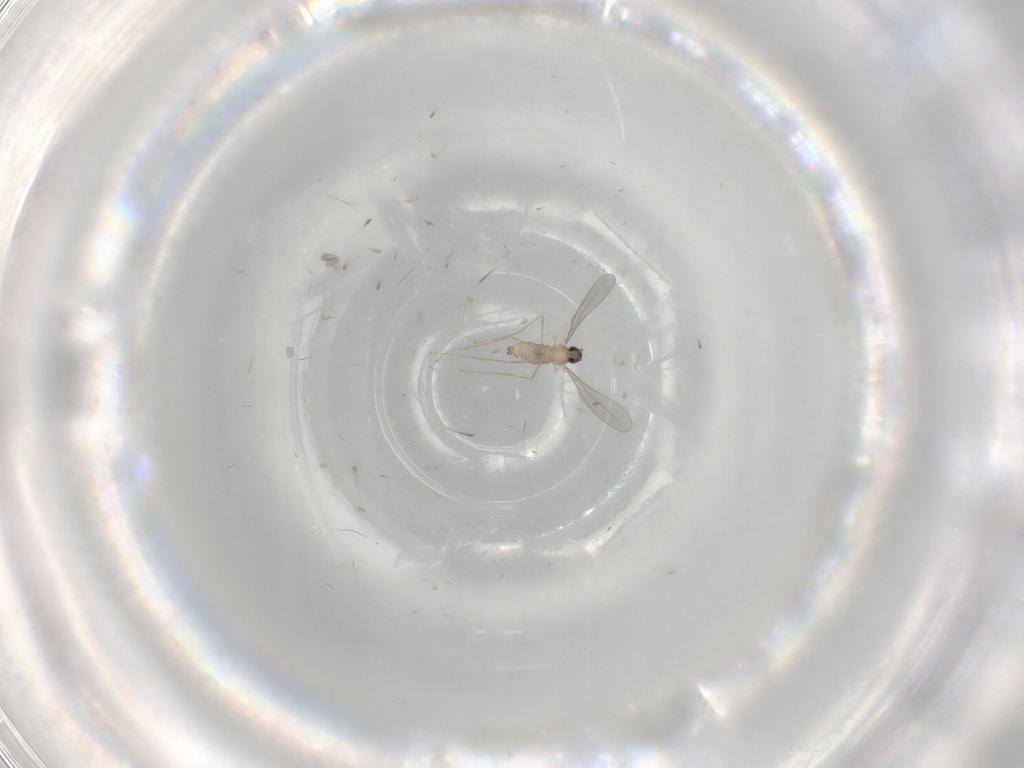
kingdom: Animalia
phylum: Arthropoda
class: Insecta
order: Diptera
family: Cecidomyiidae
